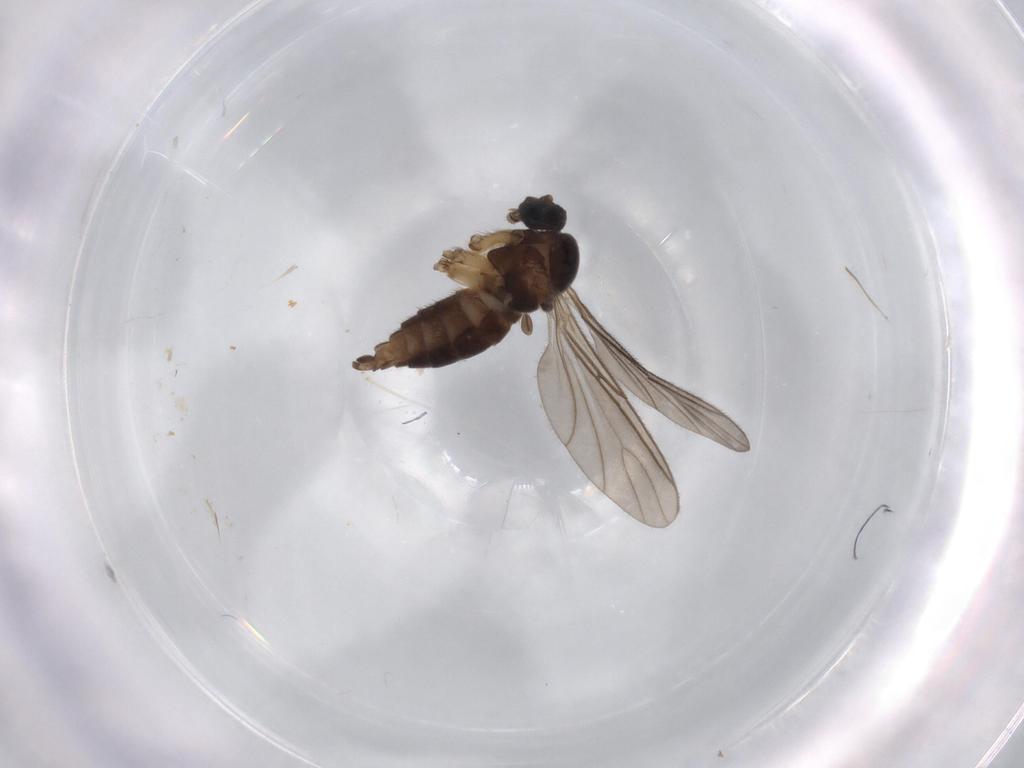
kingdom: Animalia
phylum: Arthropoda
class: Insecta
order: Diptera
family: Sciaridae
